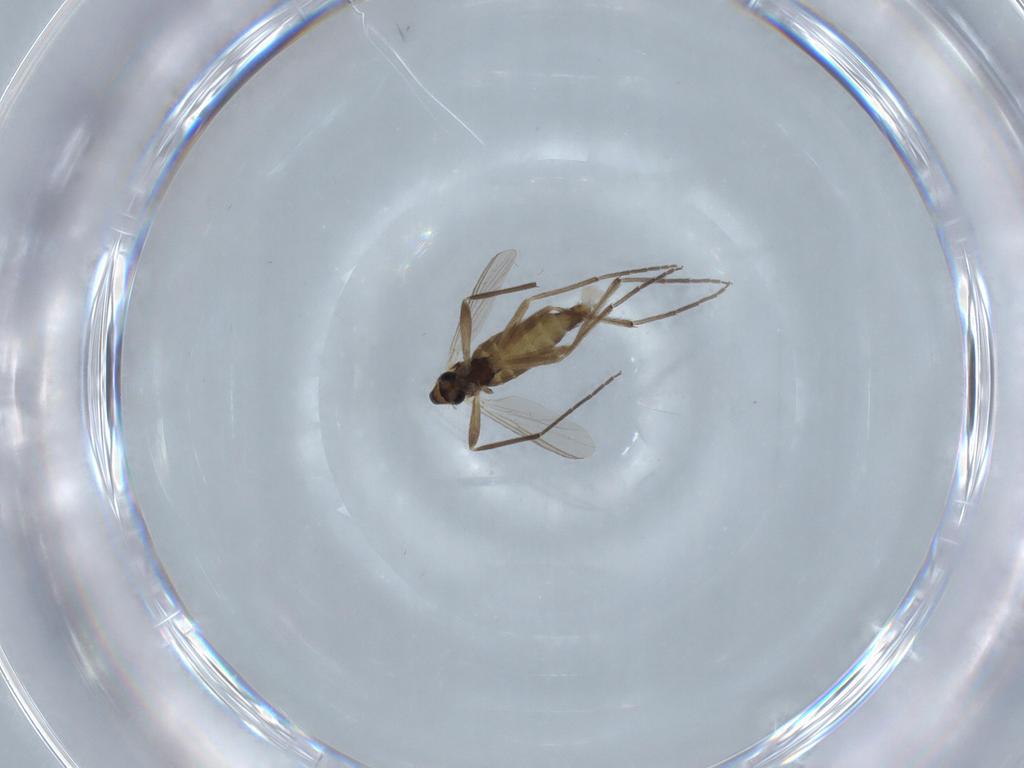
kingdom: Animalia
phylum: Arthropoda
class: Insecta
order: Diptera
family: Chironomidae
